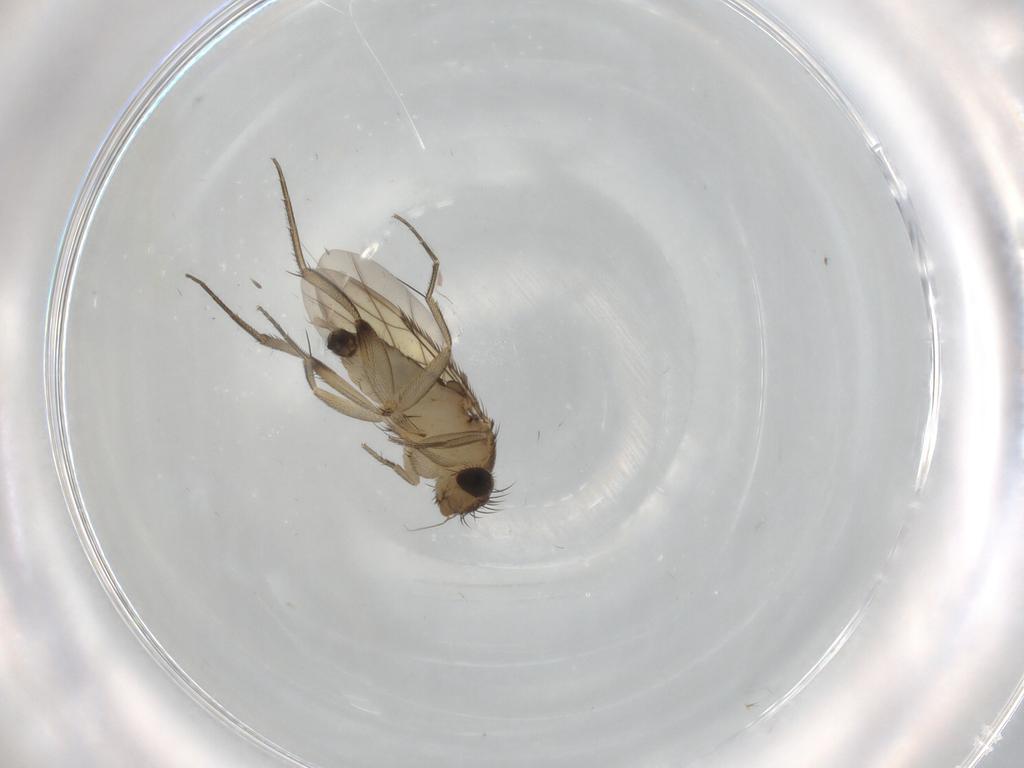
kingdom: Animalia
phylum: Arthropoda
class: Insecta
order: Diptera
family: Phoridae
